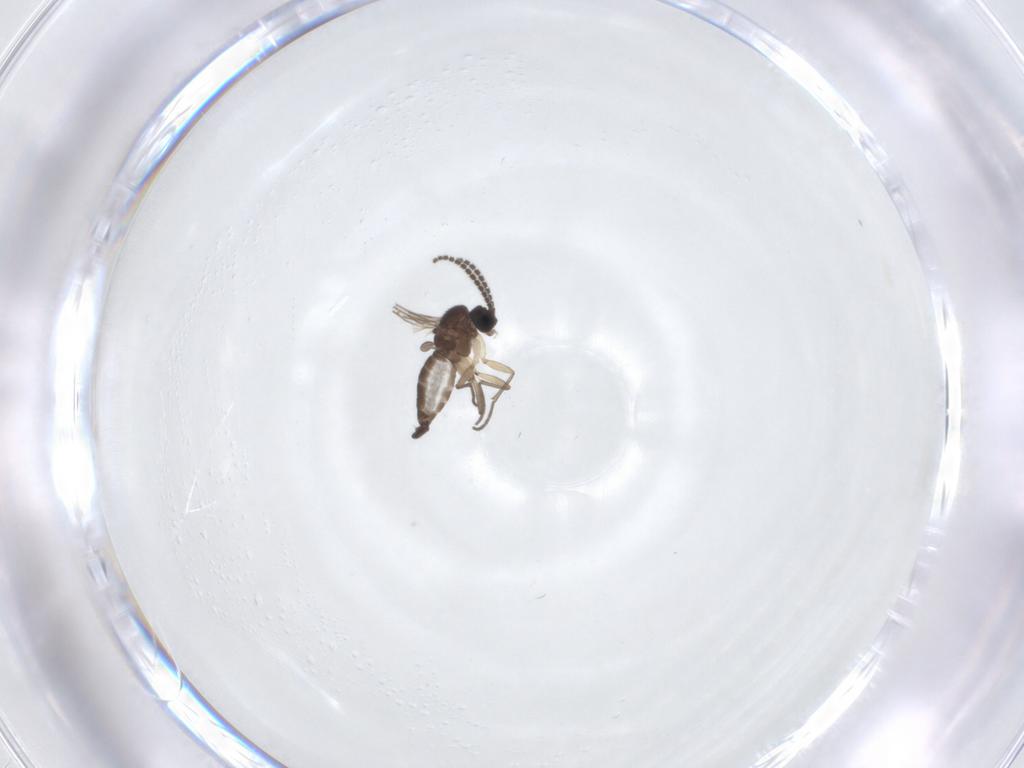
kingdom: Animalia
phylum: Arthropoda
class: Insecta
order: Diptera
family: Sciaridae
